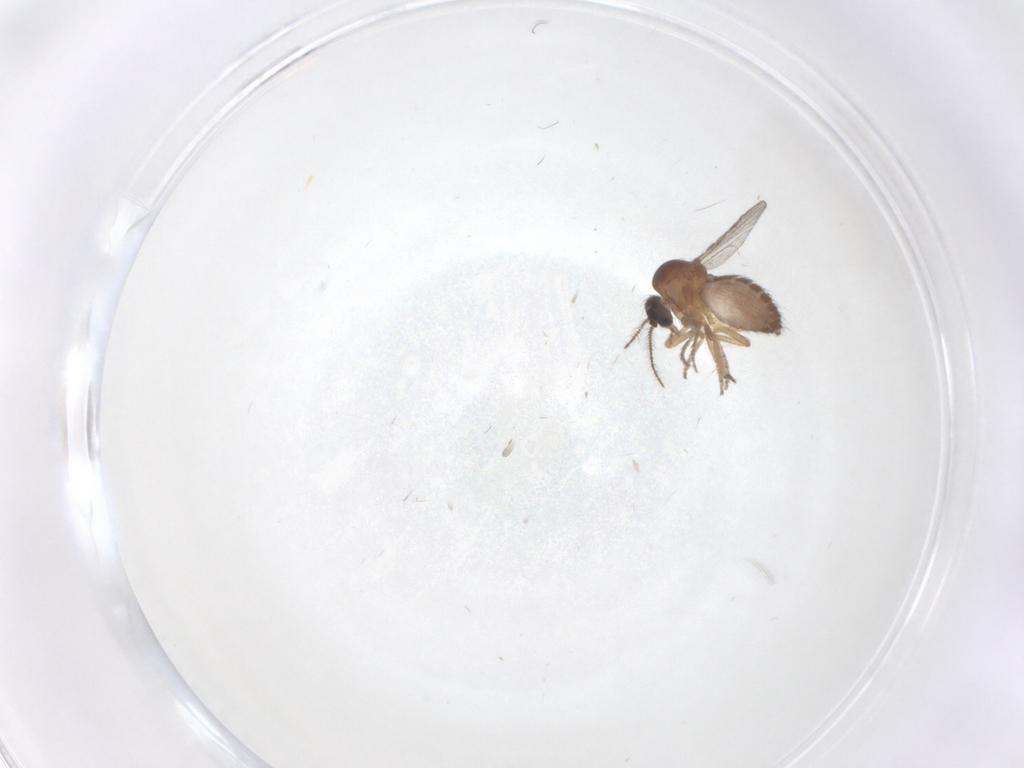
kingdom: Animalia
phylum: Arthropoda
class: Insecta
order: Diptera
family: Ceratopogonidae
